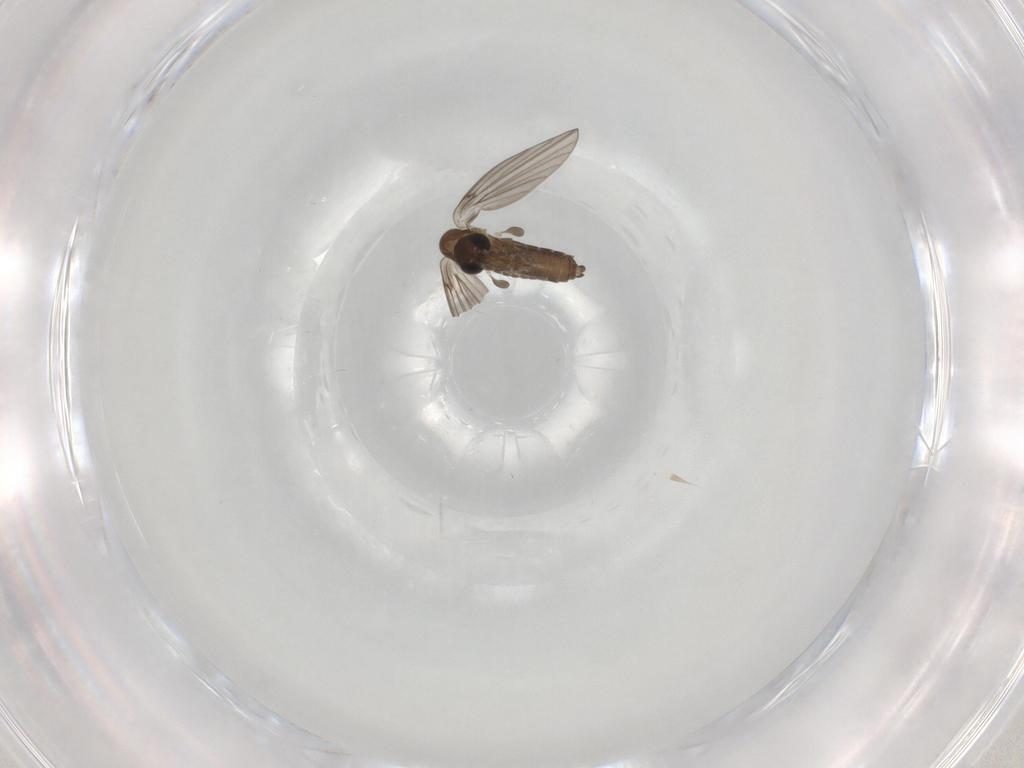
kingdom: Animalia
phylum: Arthropoda
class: Insecta
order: Diptera
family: Psychodidae
